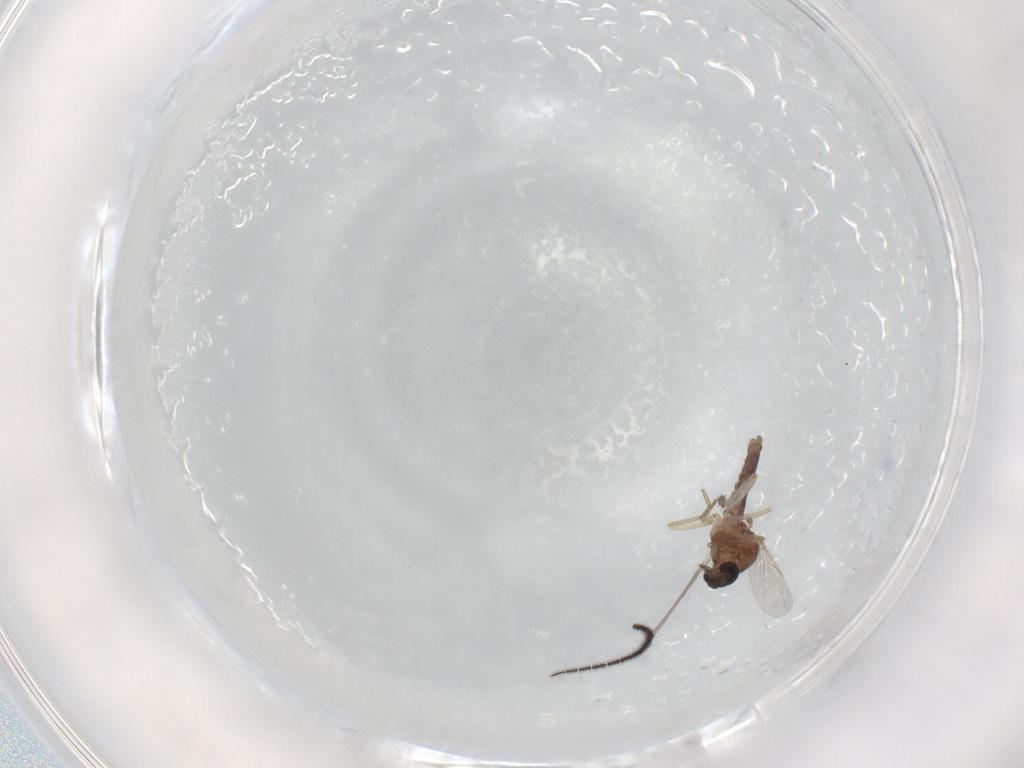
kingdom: Animalia
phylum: Arthropoda
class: Insecta
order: Diptera
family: Ceratopogonidae
